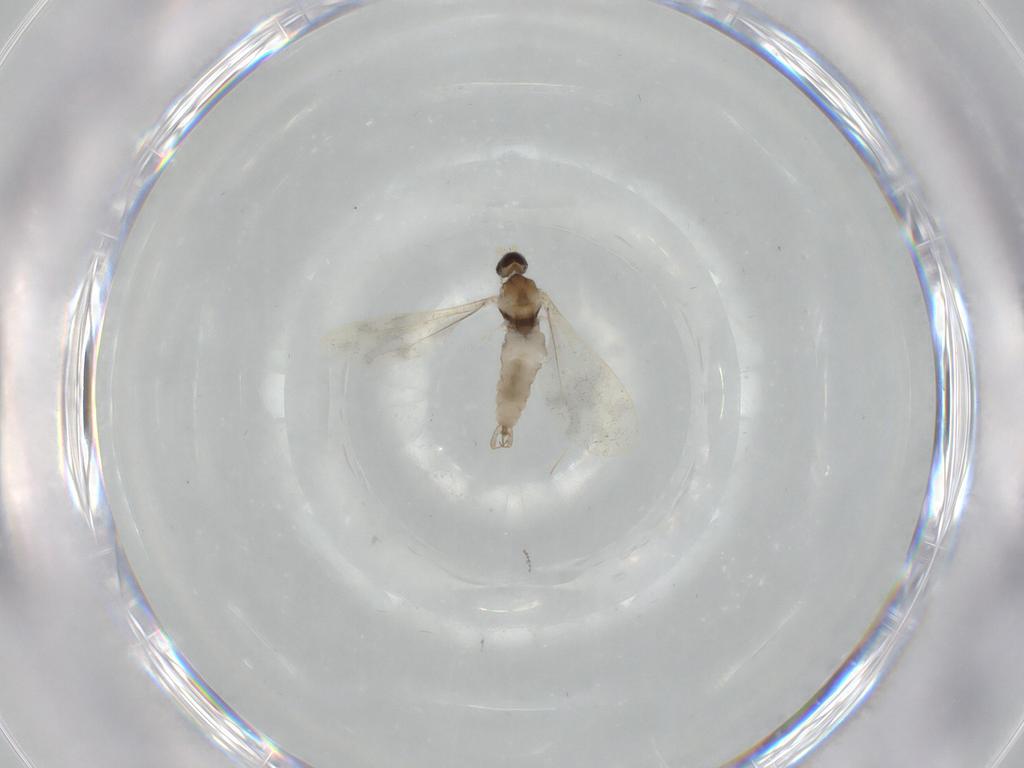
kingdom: Animalia
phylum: Arthropoda
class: Insecta
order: Diptera
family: Cecidomyiidae
